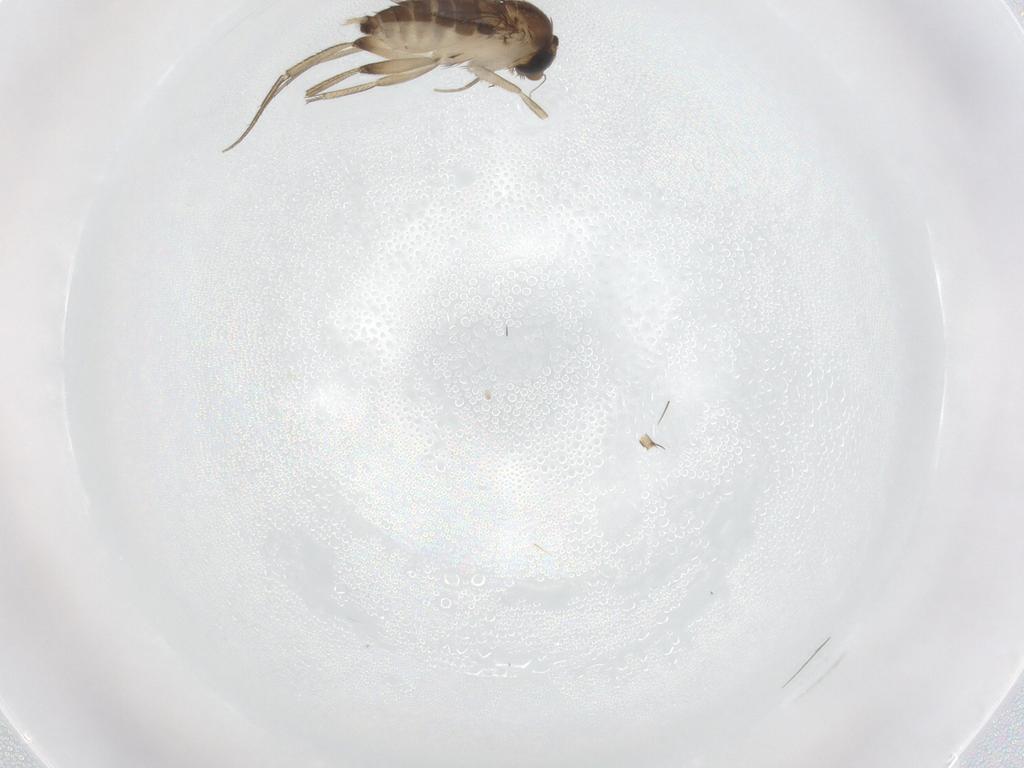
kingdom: Animalia
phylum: Arthropoda
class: Insecta
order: Diptera
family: Phoridae
